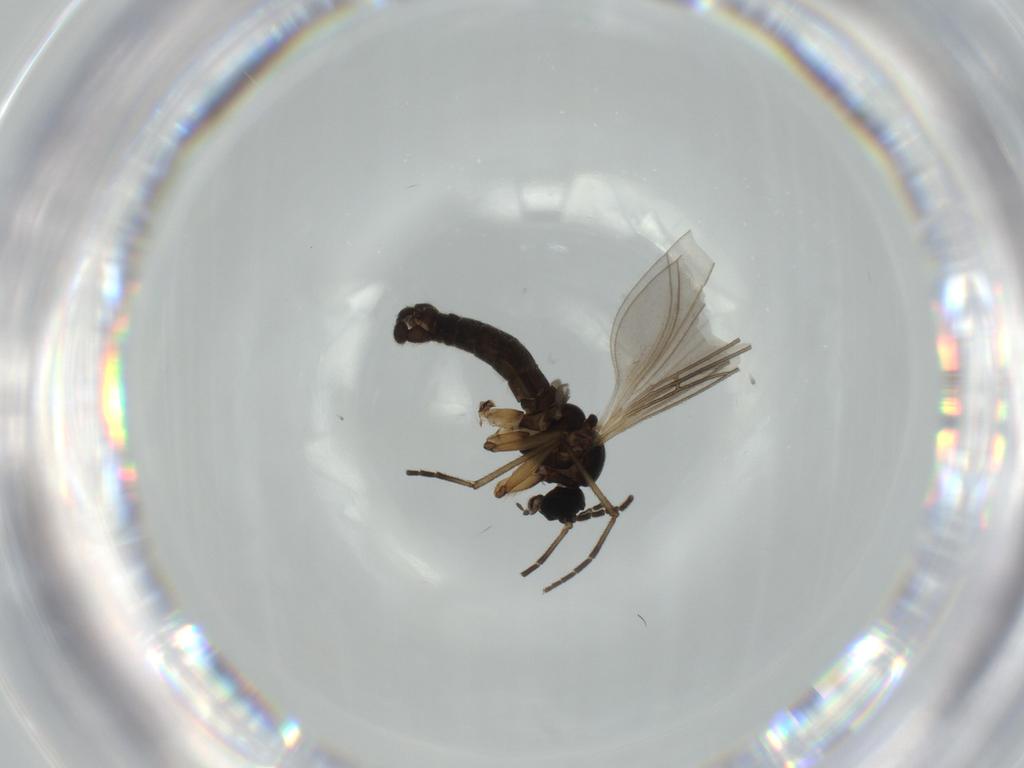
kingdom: Animalia
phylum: Arthropoda
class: Insecta
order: Diptera
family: Sciaridae
